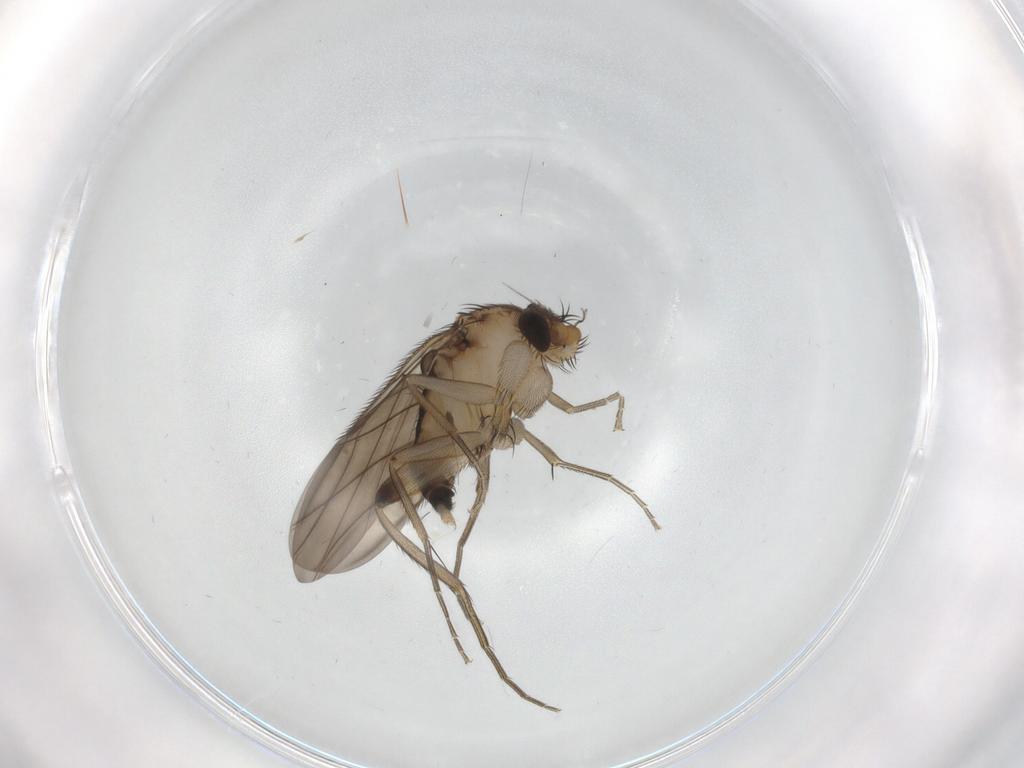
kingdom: Animalia
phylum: Arthropoda
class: Insecta
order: Diptera
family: Phoridae
